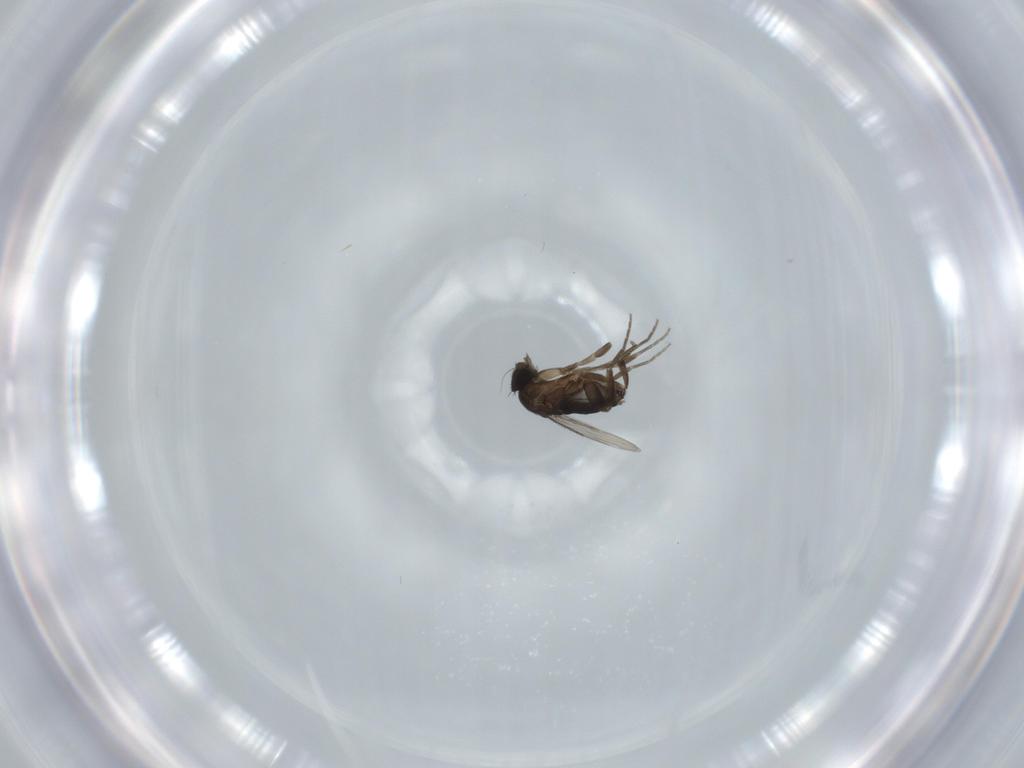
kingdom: Animalia
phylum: Arthropoda
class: Insecta
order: Diptera
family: Phoridae
